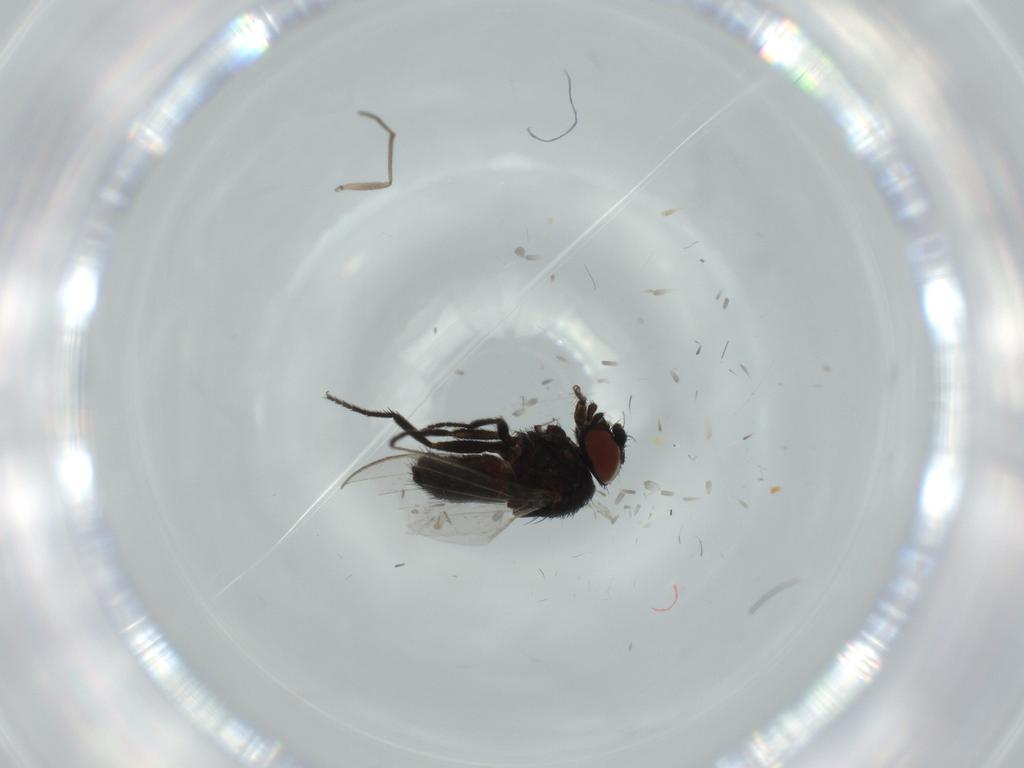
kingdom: Animalia
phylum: Arthropoda
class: Insecta
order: Diptera
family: Milichiidae
